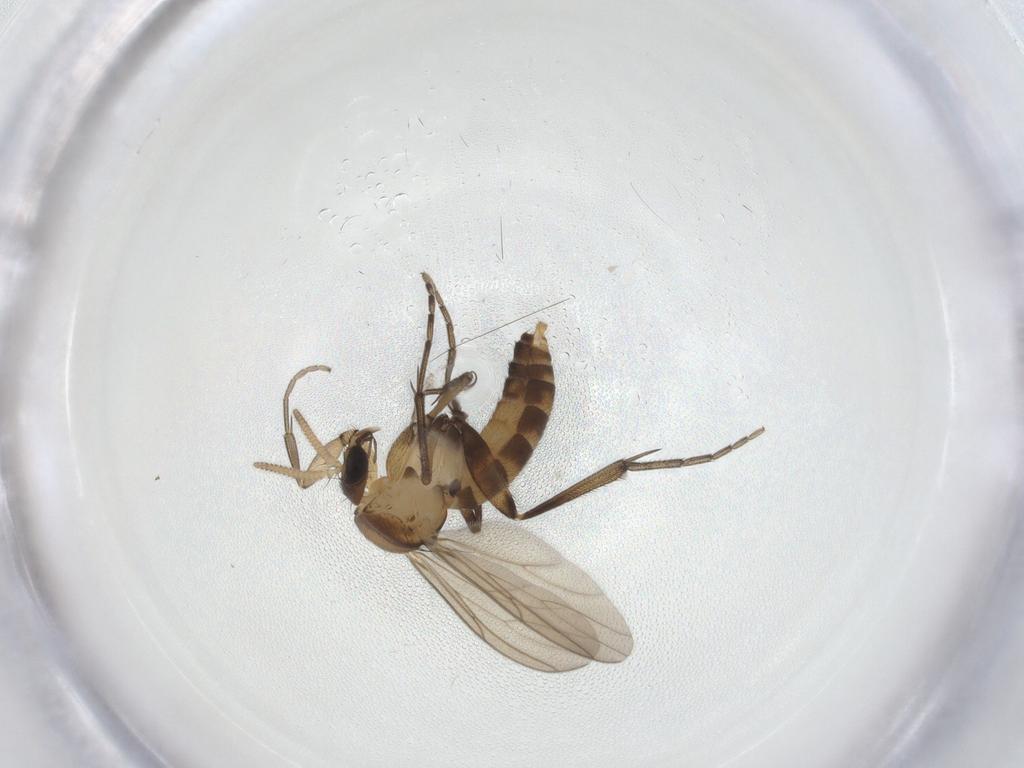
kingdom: Animalia
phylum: Arthropoda
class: Insecta
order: Diptera
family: Mycetophilidae
